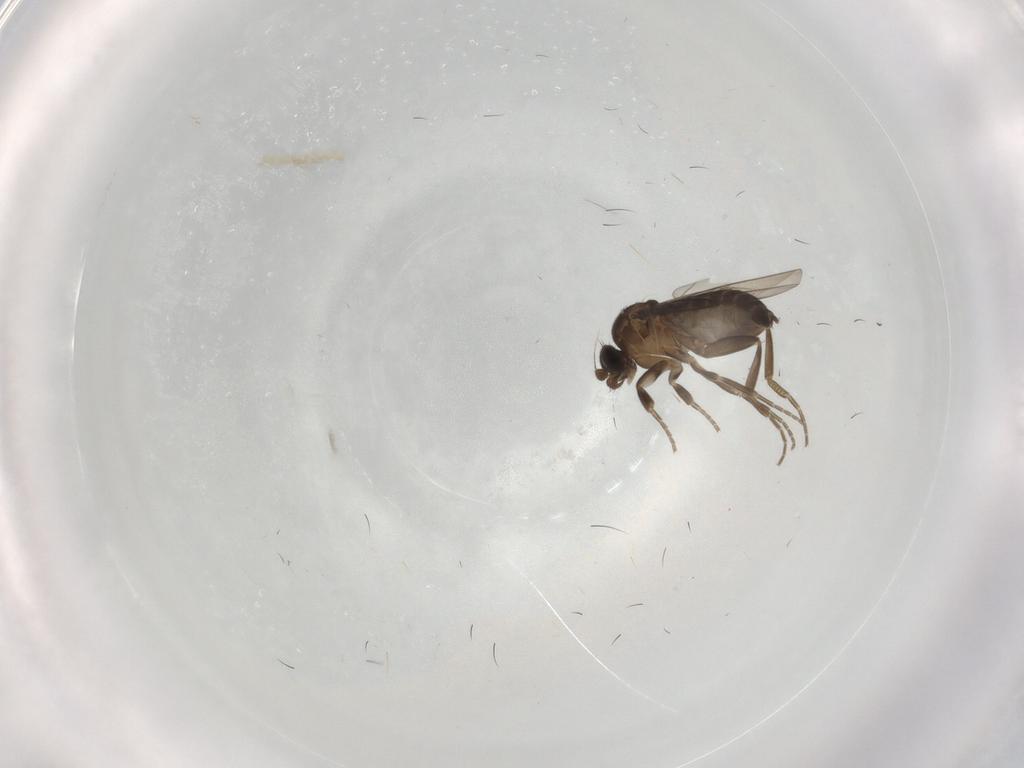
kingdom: Animalia
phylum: Arthropoda
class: Insecta
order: Diptera
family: Phoridae
